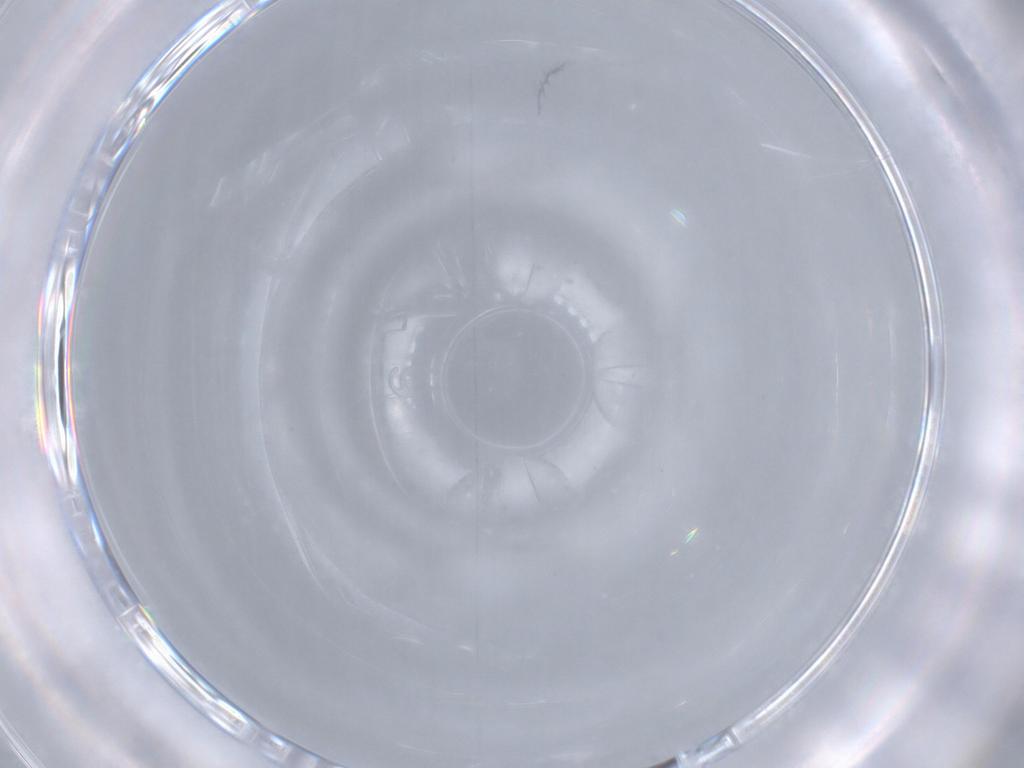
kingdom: Animalia
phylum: Arthropoda
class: Insecta
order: Hymenoptera
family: Trichogrammatidae
